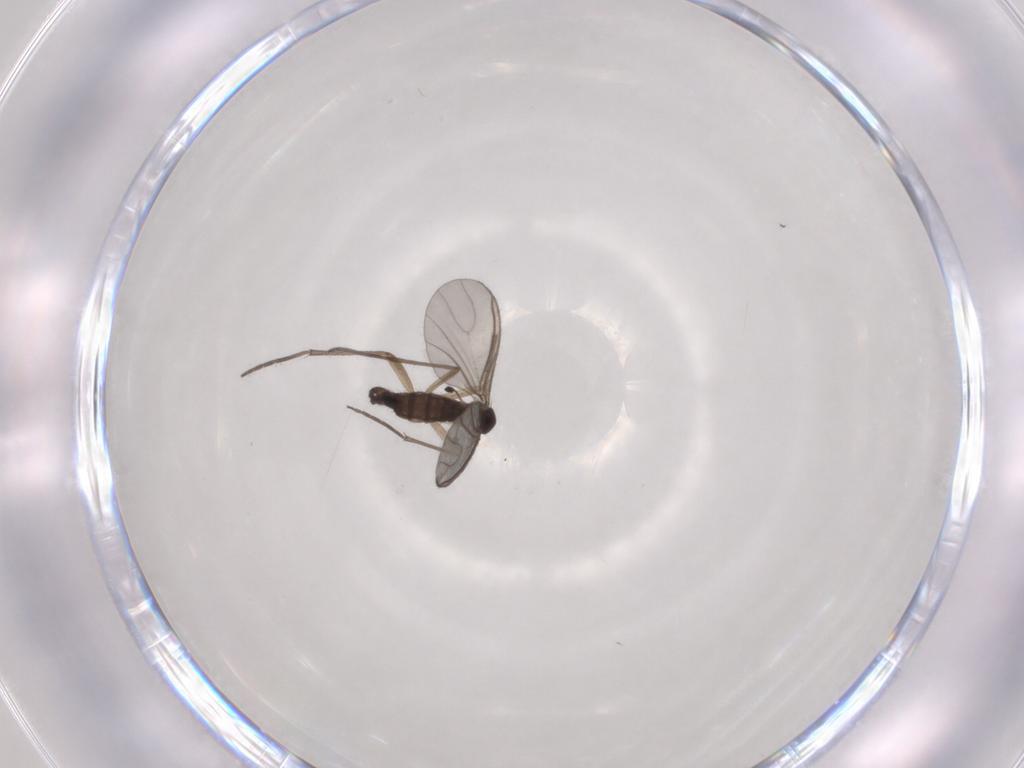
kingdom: Animalia
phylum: Arthropoda
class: Insecta
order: Diptera
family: Sciaridae
